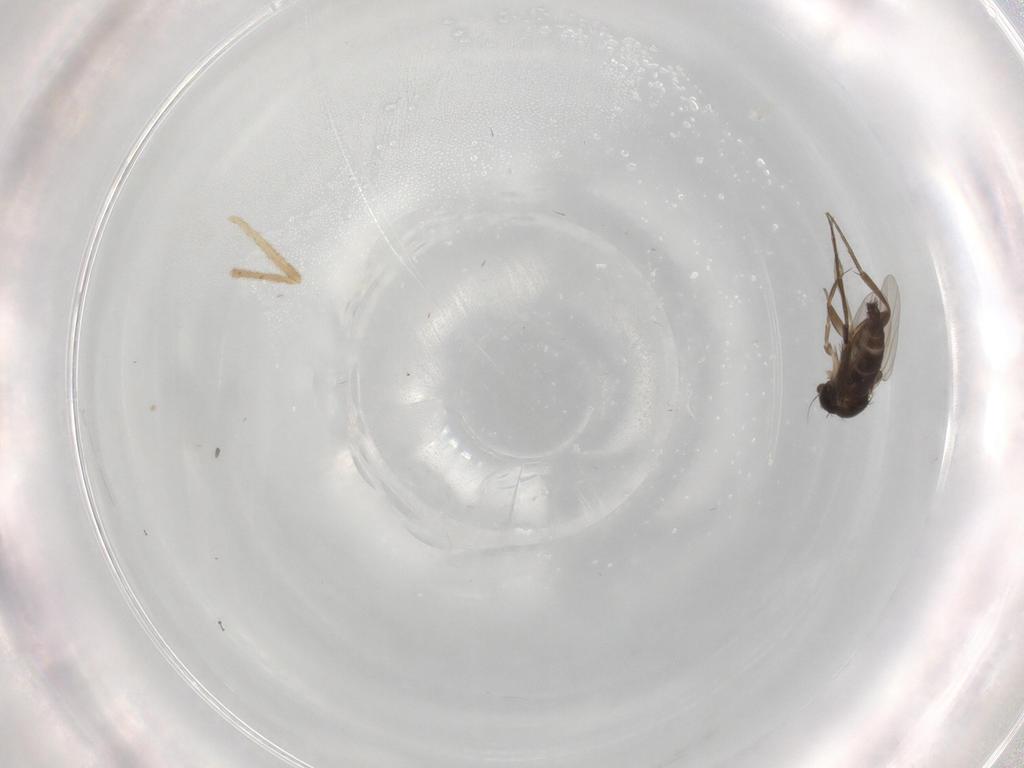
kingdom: Animalia
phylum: Arthropoda
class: Insecta
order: Diptera
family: Chironomidae
